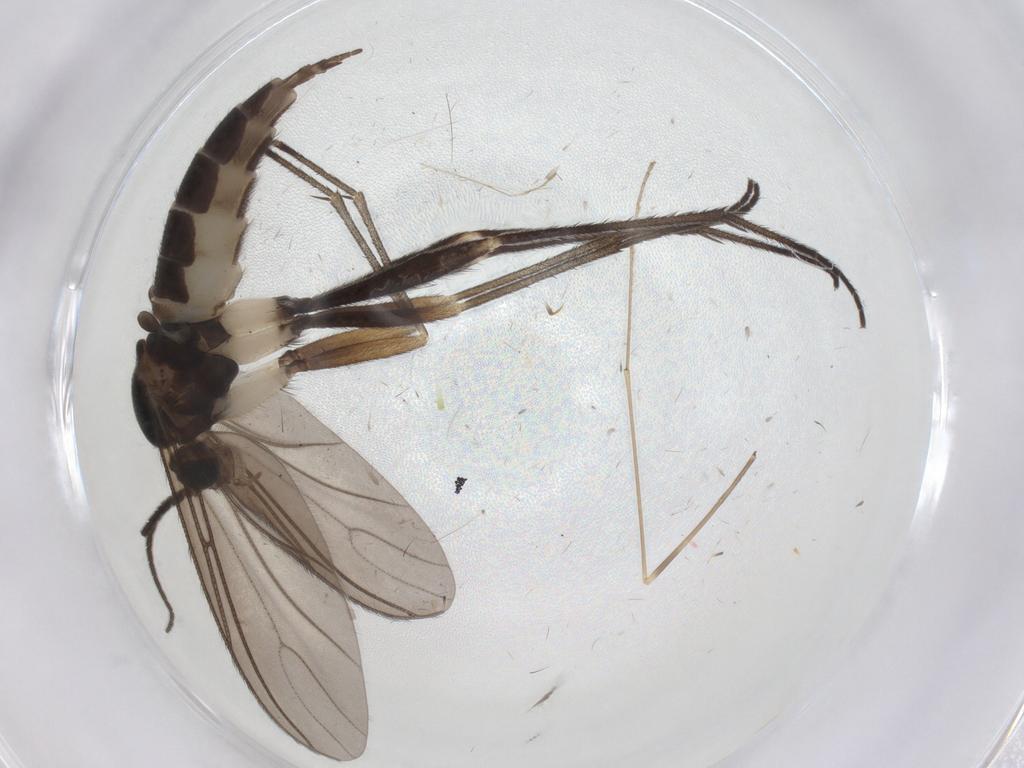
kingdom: Animalia
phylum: Arthropoda
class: Insecta
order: Diptera
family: Sciaridae
